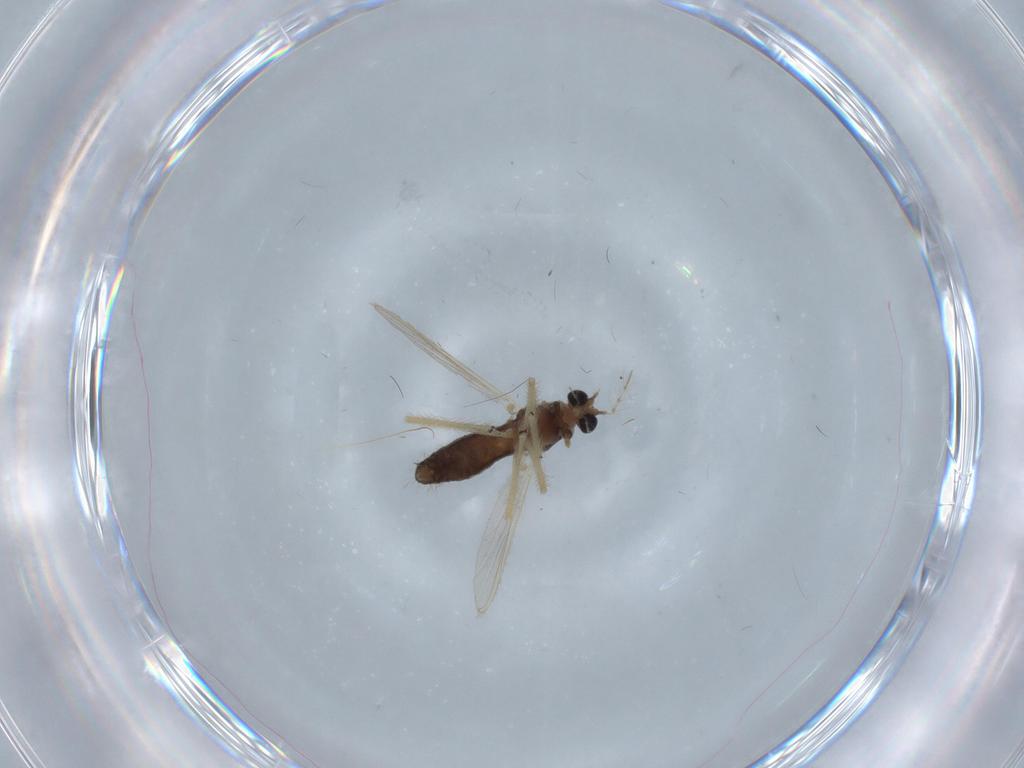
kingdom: Animalia
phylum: Arthropoda
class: Insecta
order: Diptera
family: Chironomidae
